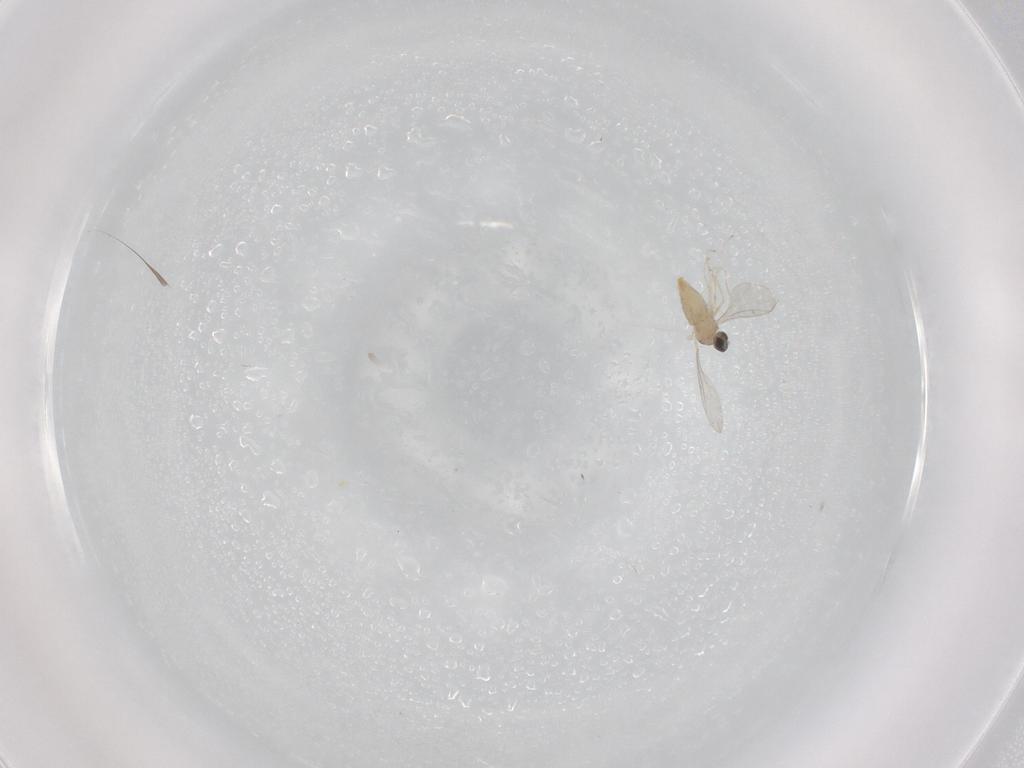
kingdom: Animalia
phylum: Arthropoda
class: Insecta
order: Diptera
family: Cecidomyiidae
